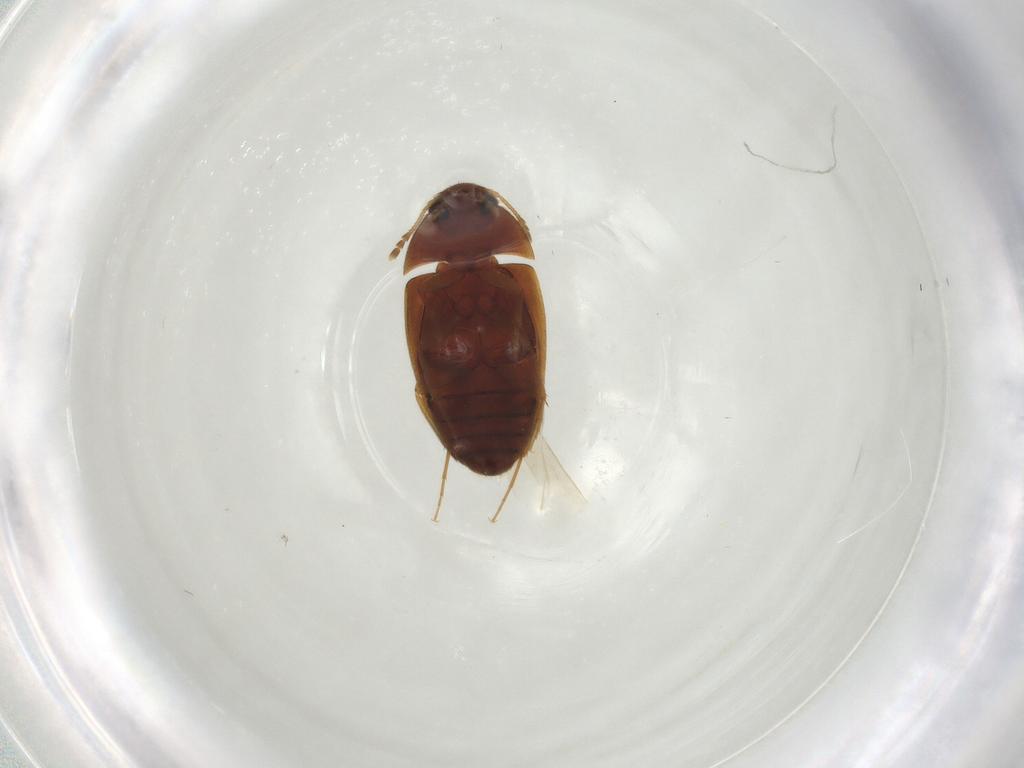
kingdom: Animalia
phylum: Arthropoda
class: Insecta
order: Coleoptera
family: Mycetophagidae
